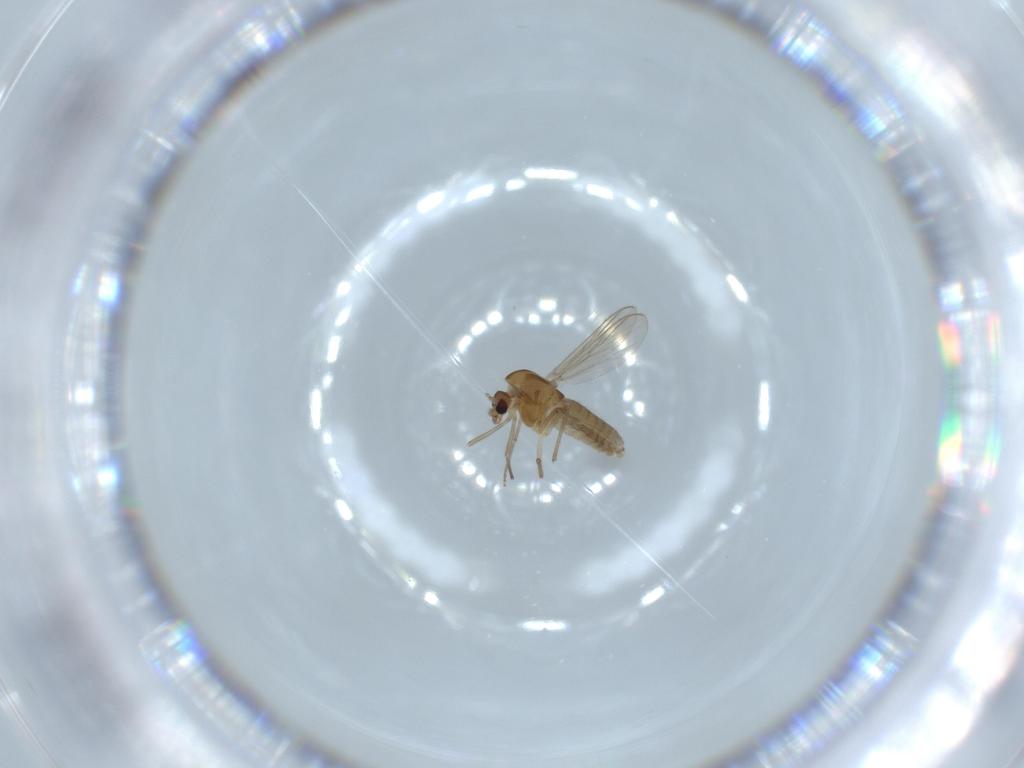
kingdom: Animalia
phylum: Arthropoda
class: Insecta
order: Diptera
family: Chironomidae
